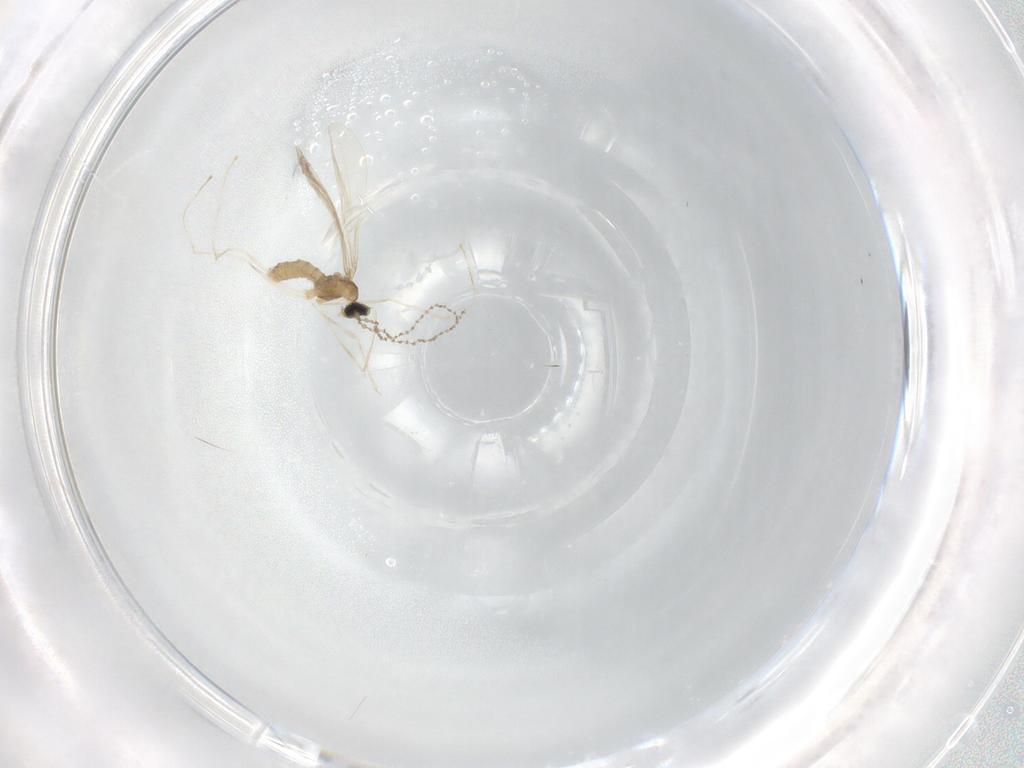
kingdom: Animalia
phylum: Arthropoda
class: Insecta
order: Diptera
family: Cecidomyiidae
